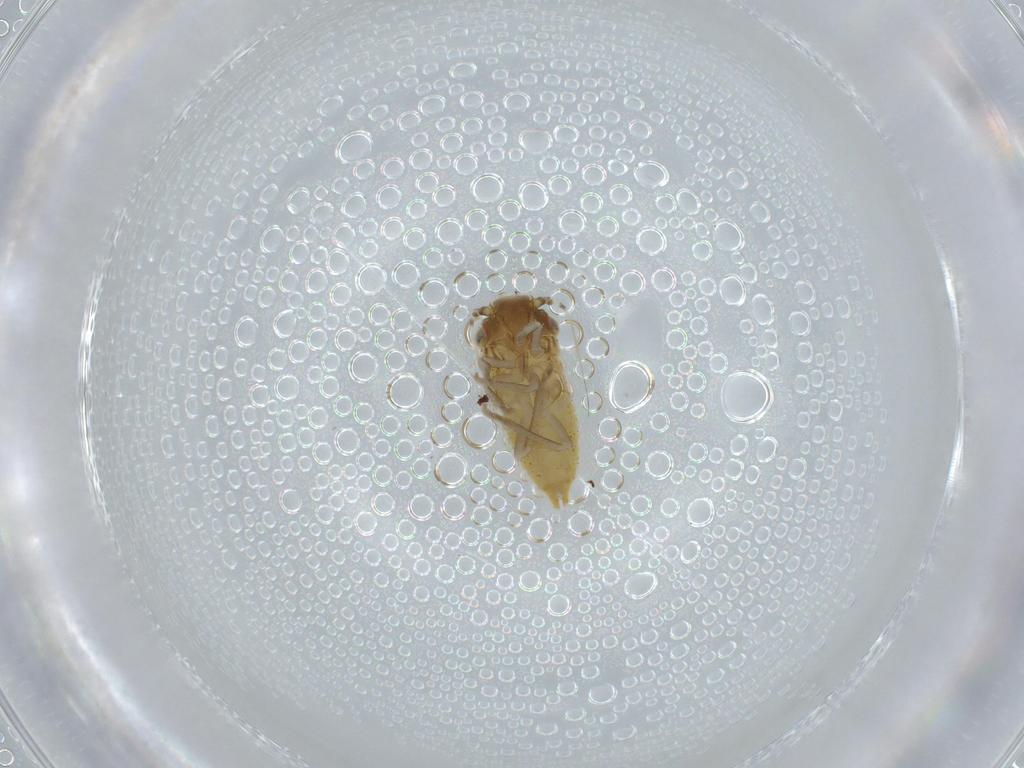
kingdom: Animalia
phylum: Arthropoda
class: Insecta
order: Hemiptera
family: Cicadellidae
